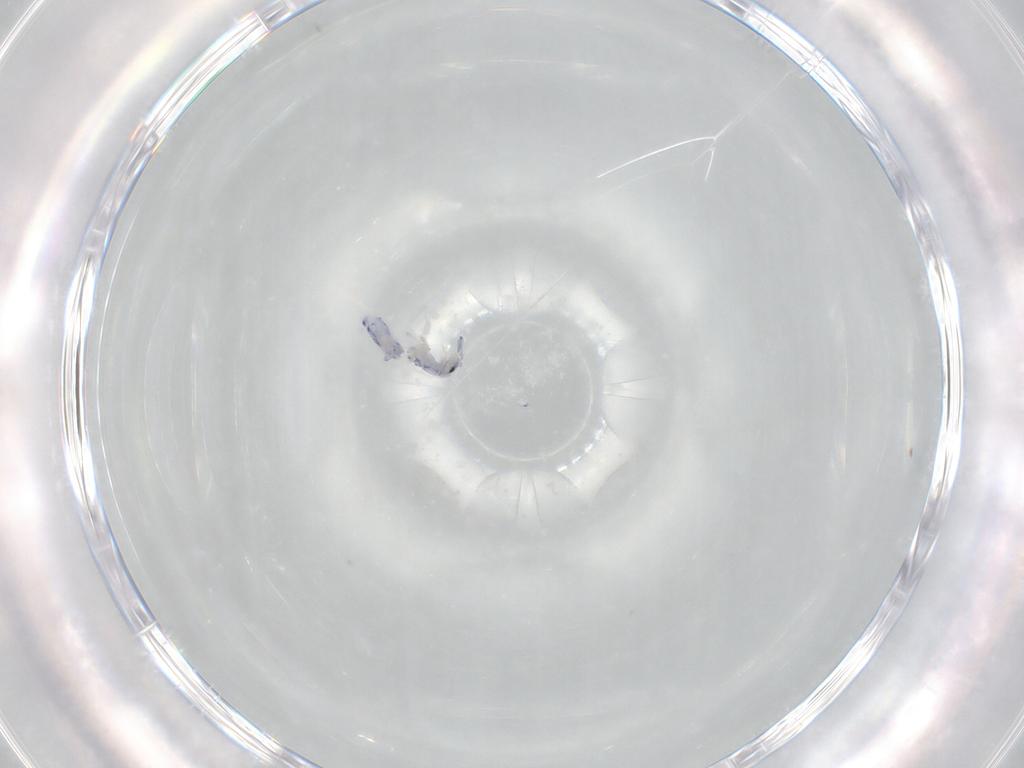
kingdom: Animalia
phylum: Arthropoda
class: Collembola
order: Entomobryomorpha
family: Entomobryidae
